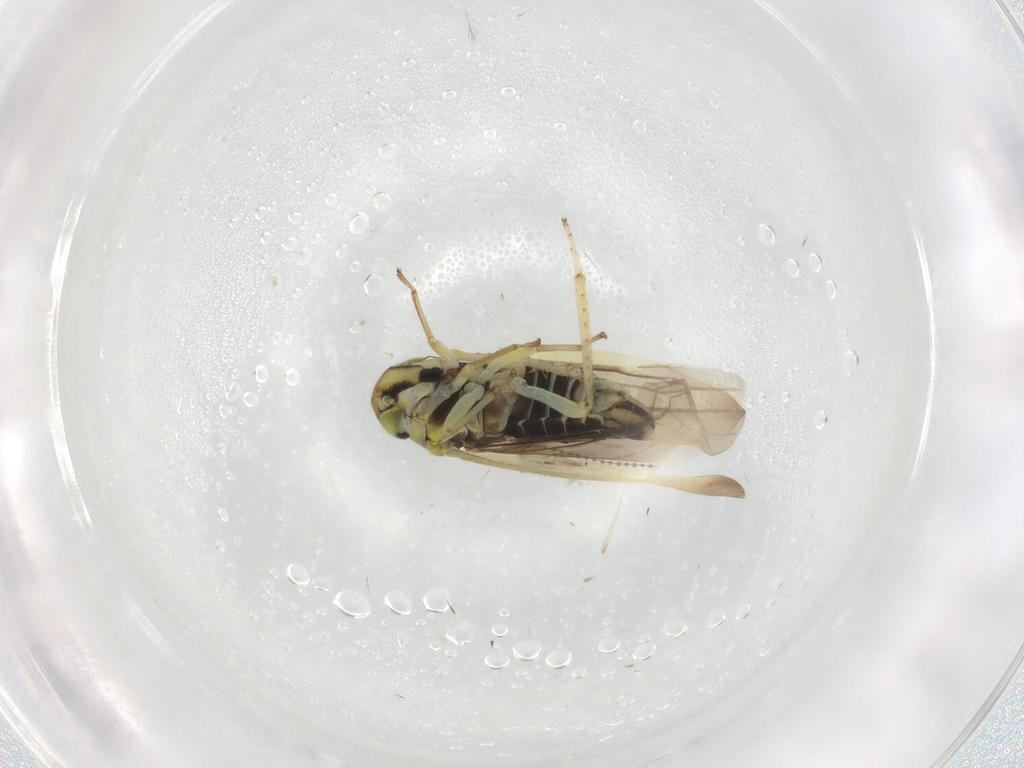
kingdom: Animalia
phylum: Arthropoda
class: Insecta
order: Hemiptera
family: Cicadellidae
